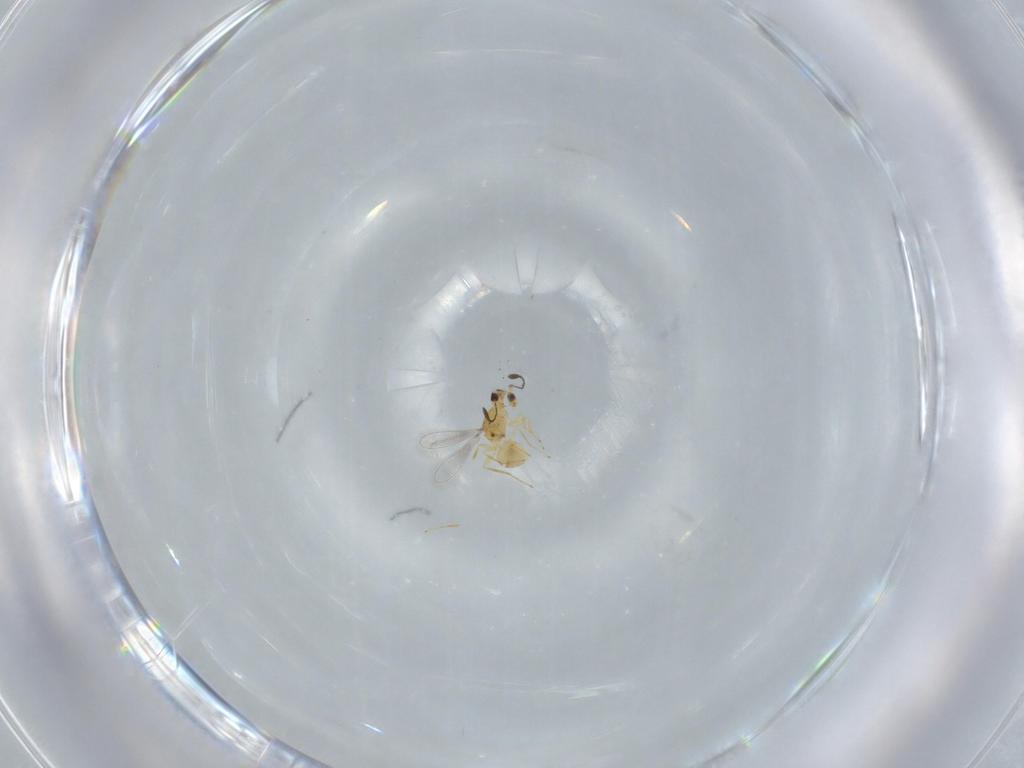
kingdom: Animalia
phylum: Arthropoda
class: Insecta
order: Hymenoptera
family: Mymaridae
